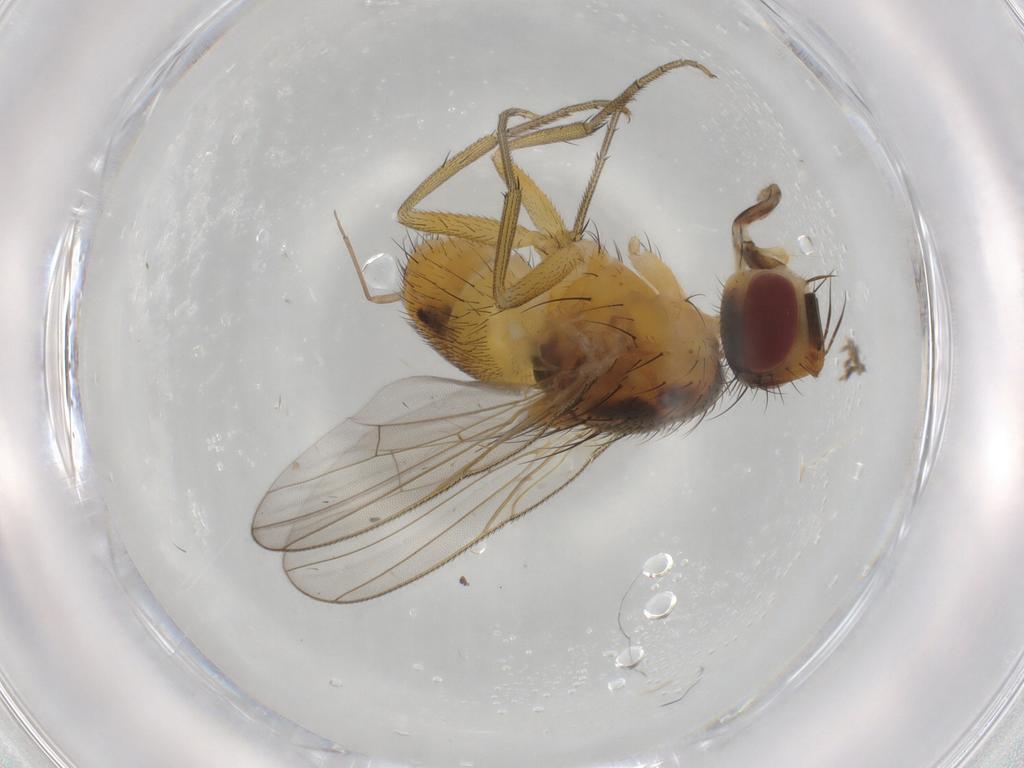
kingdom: Animalia
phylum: Arthropoda
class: Insecta
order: Diptera
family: Muscidae
